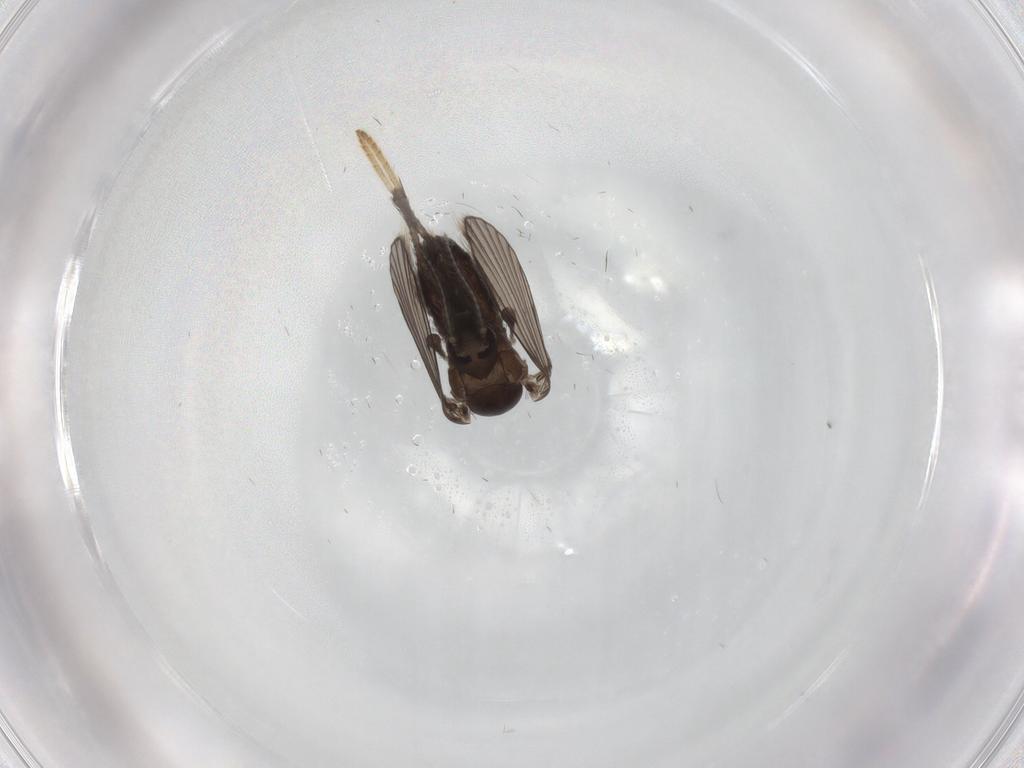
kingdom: Animalia
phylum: Arthropoda
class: Insecta
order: Diptera
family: Psychodidae
